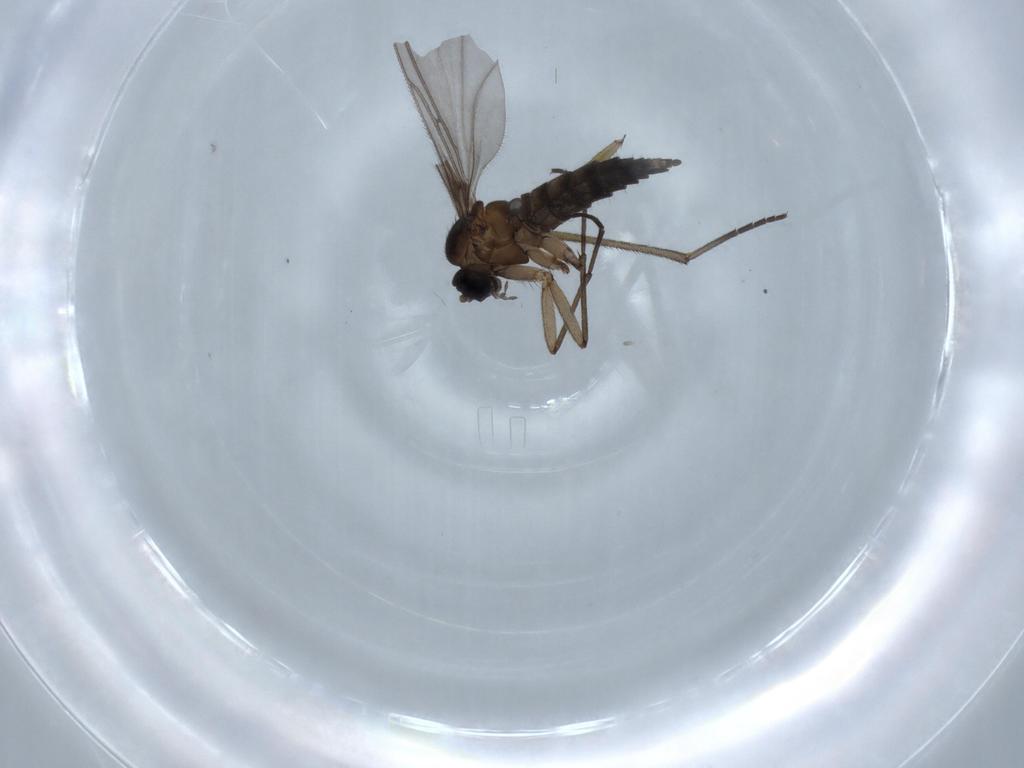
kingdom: Animalia
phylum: Arthropoda
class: Insecta
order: Diptera
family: Sciaridae
